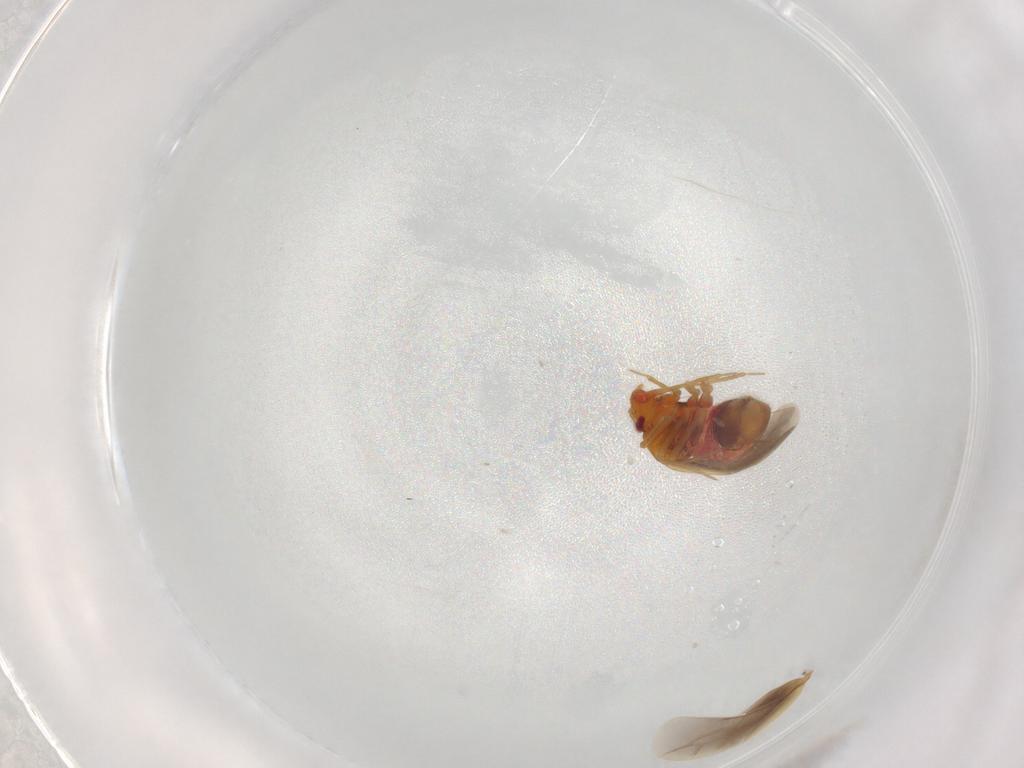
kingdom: Animalia
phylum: Arthropoda
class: Insecta
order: Hemiptera
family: Ceratocombidae
